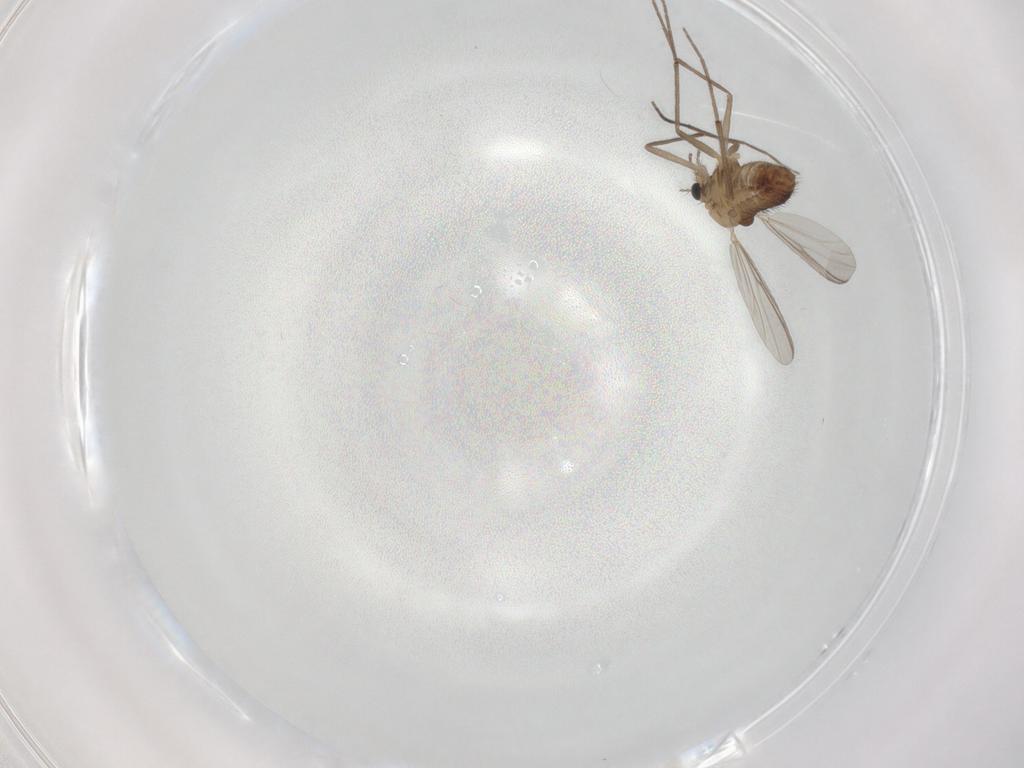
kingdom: Animalia
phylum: Arthropoda
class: Insecta
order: Diptera
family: Chironomidae
